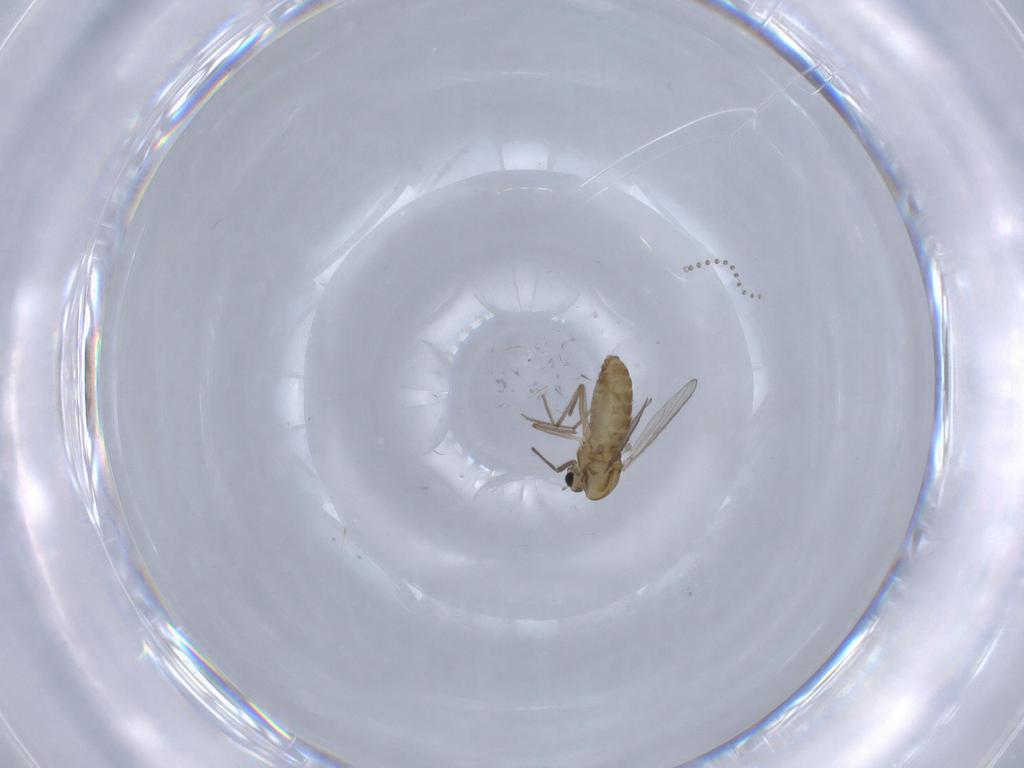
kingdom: Animalia
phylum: Arthropoda
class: Insecta
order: Diptera
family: Chironomidae
